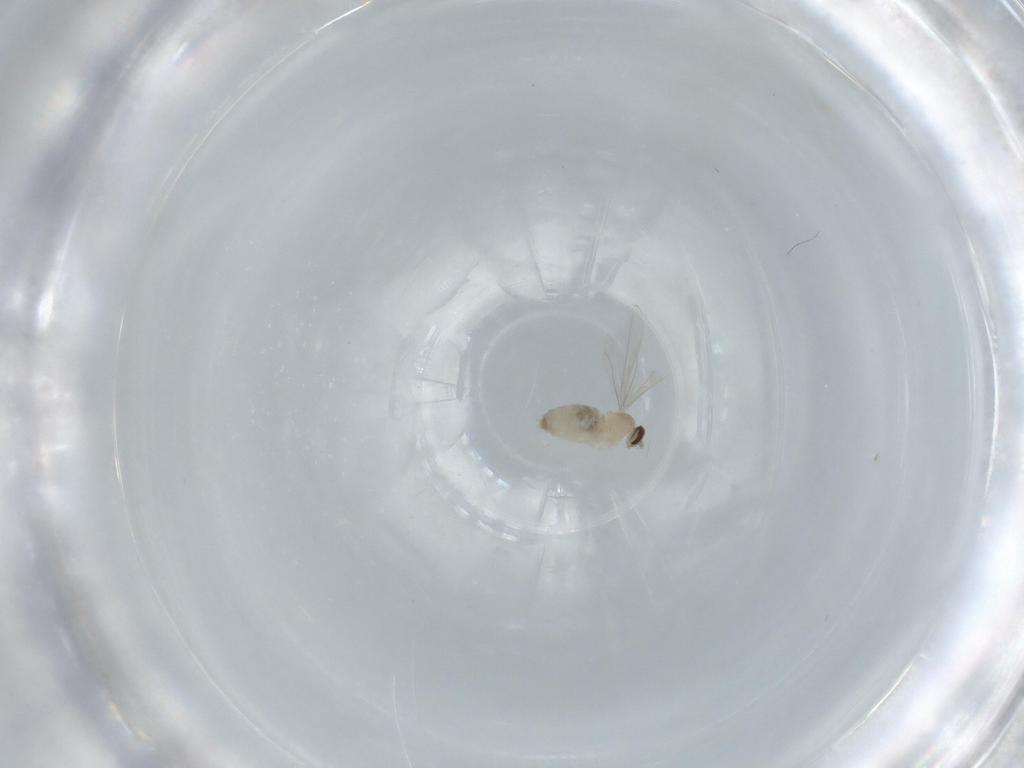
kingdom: Animalia
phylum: Arthropoda
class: Insecta
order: Diptera
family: Cecidomyiidae
